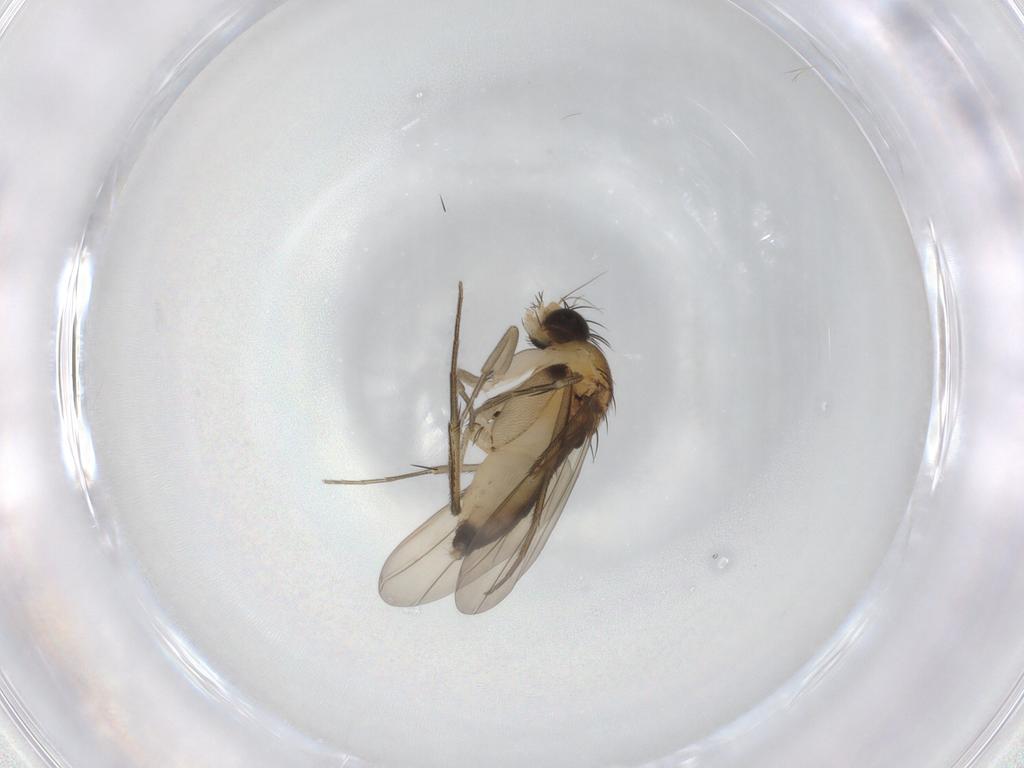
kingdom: Animalia
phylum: Arthropoda
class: Insecta
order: Diptera
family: Phoridae
